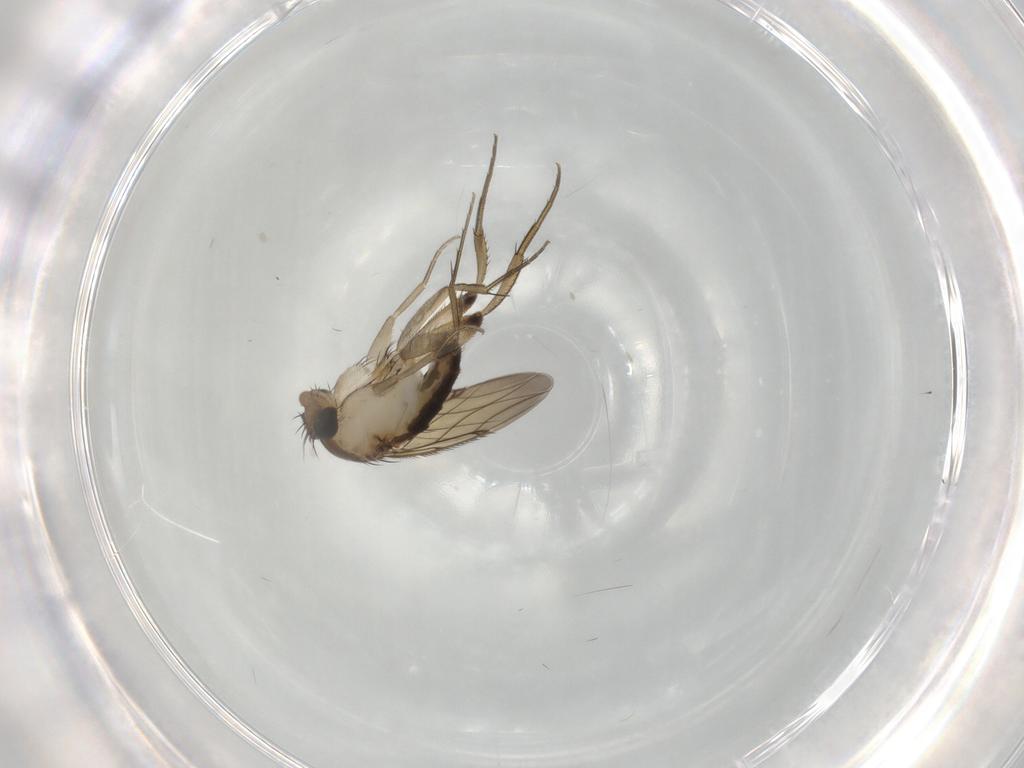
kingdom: Animalia
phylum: Arthropoda
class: Insecta
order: Diptera
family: Phoridae
